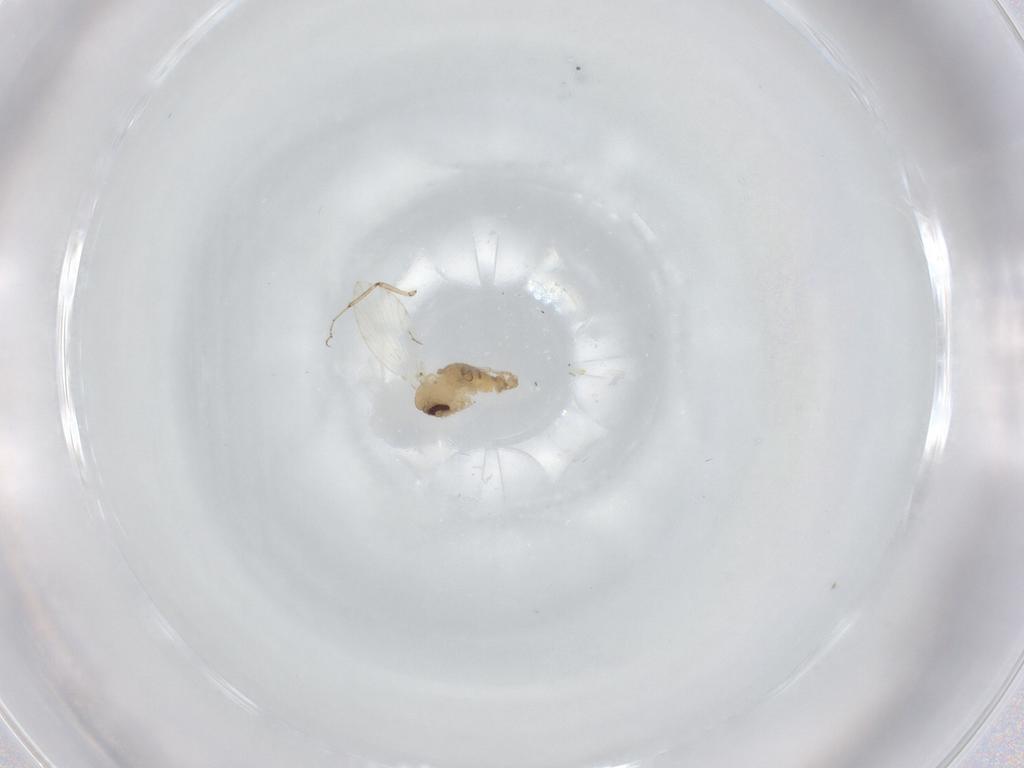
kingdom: Animalia
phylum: Arthropoda
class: Insecta
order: Diptera
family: Psychodidae
